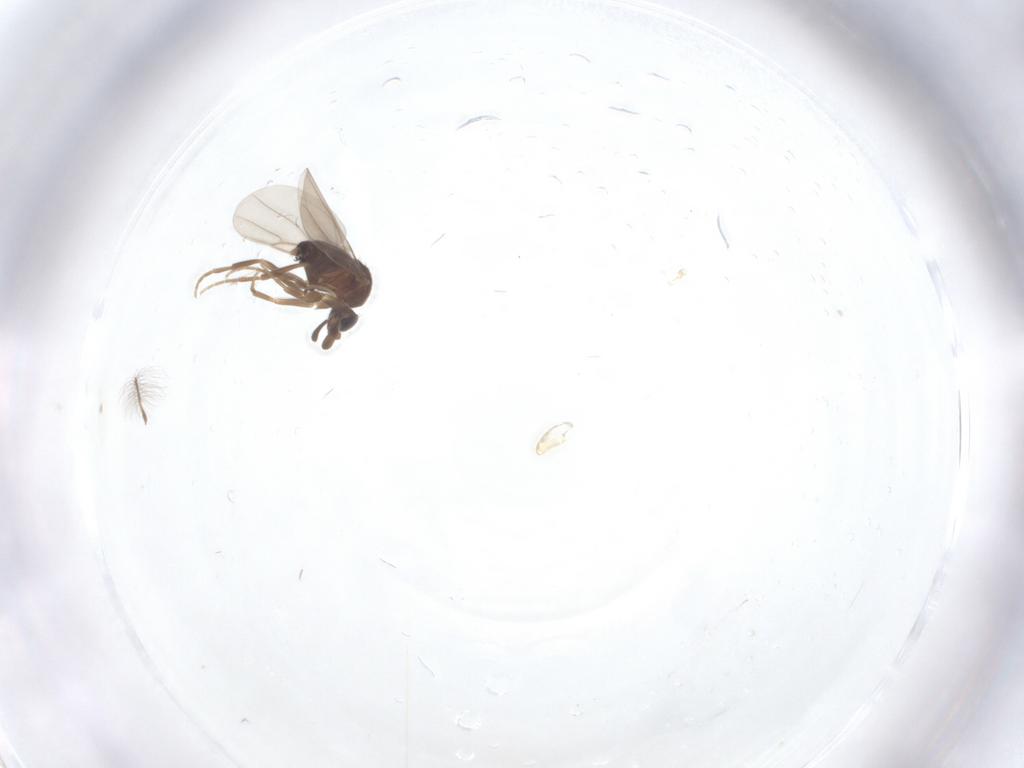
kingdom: Animalia
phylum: Arthropoda
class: Insecta
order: Diptera
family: Phoridae
